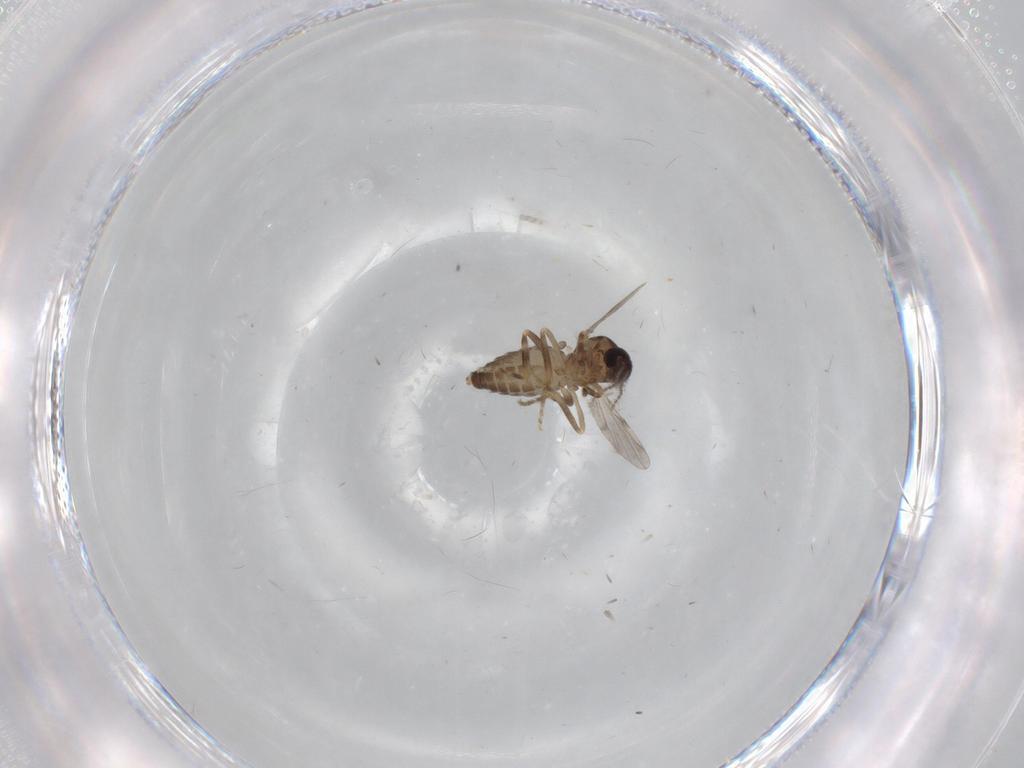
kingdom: Animalia
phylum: Arthropoda
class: Insecta
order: Diptera
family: Ceratopogonidae
